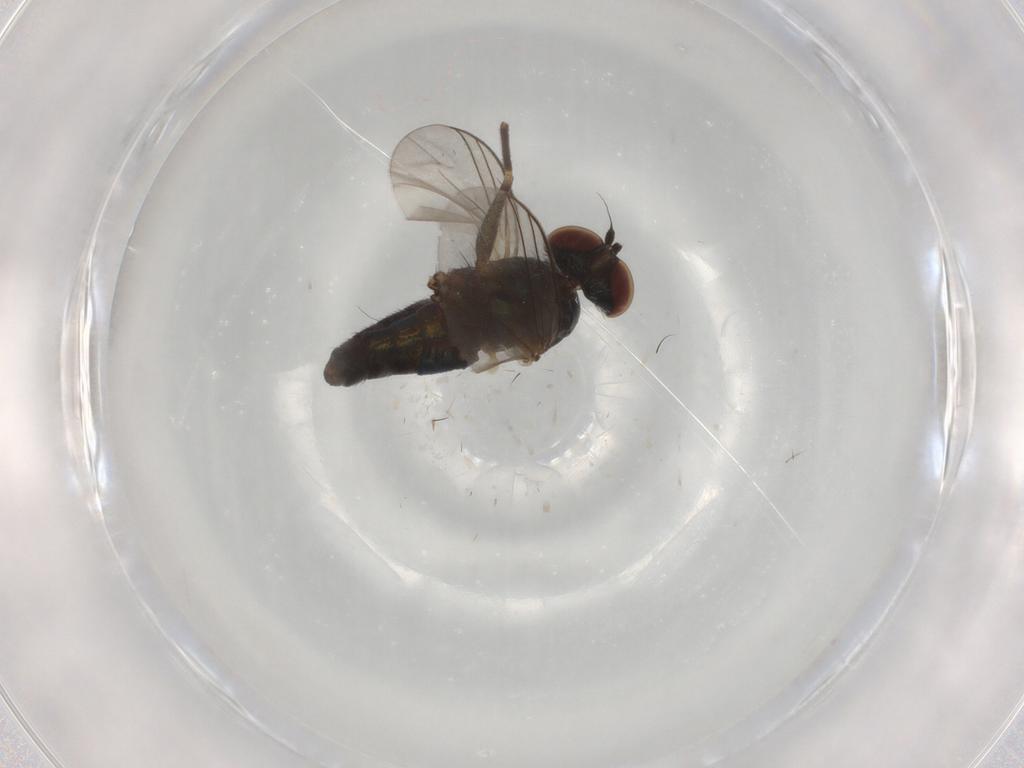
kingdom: Animalia
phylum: Arthropoda
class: Insecta
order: Diptera
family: Dolichopodidae
